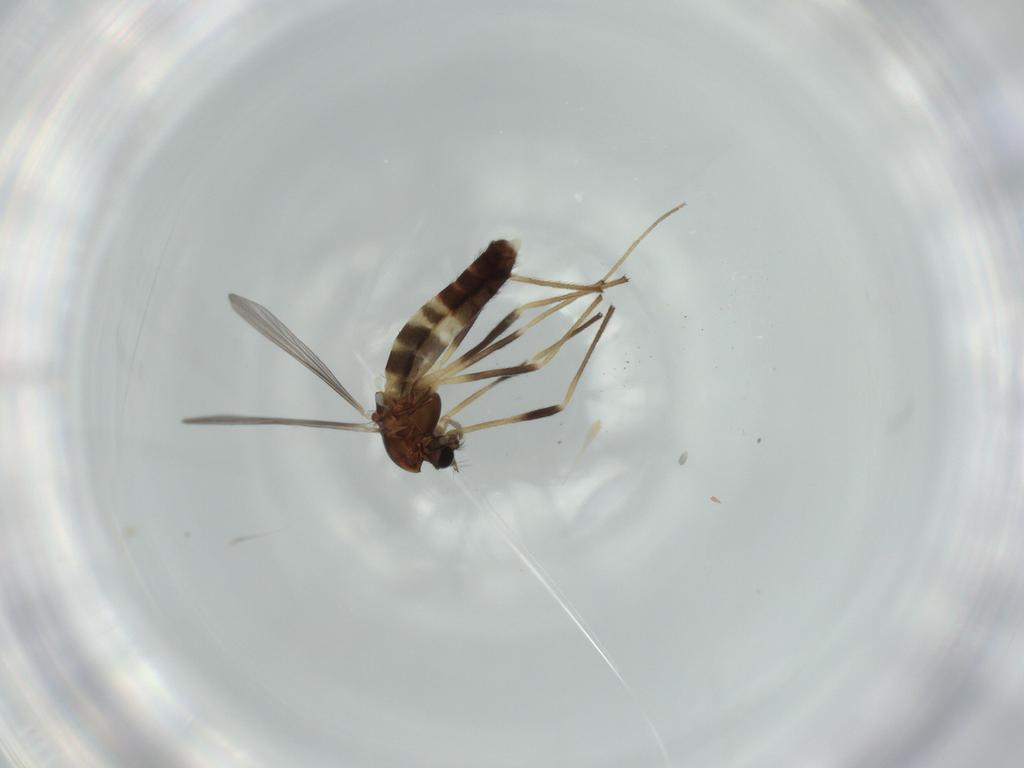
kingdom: Animalia
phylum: Arthropoda
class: Insecta
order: Diptera
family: Chironomidae
